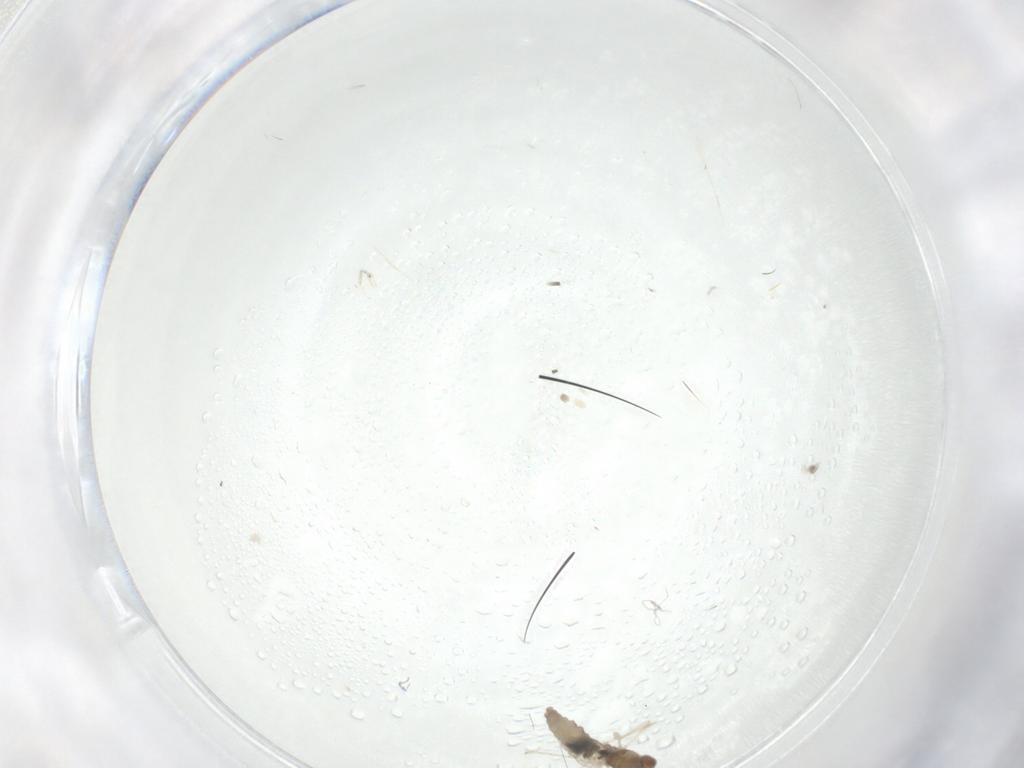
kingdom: Animalia
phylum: Arthropoda
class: Insecta
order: Diptera
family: Cecidomyiidae
